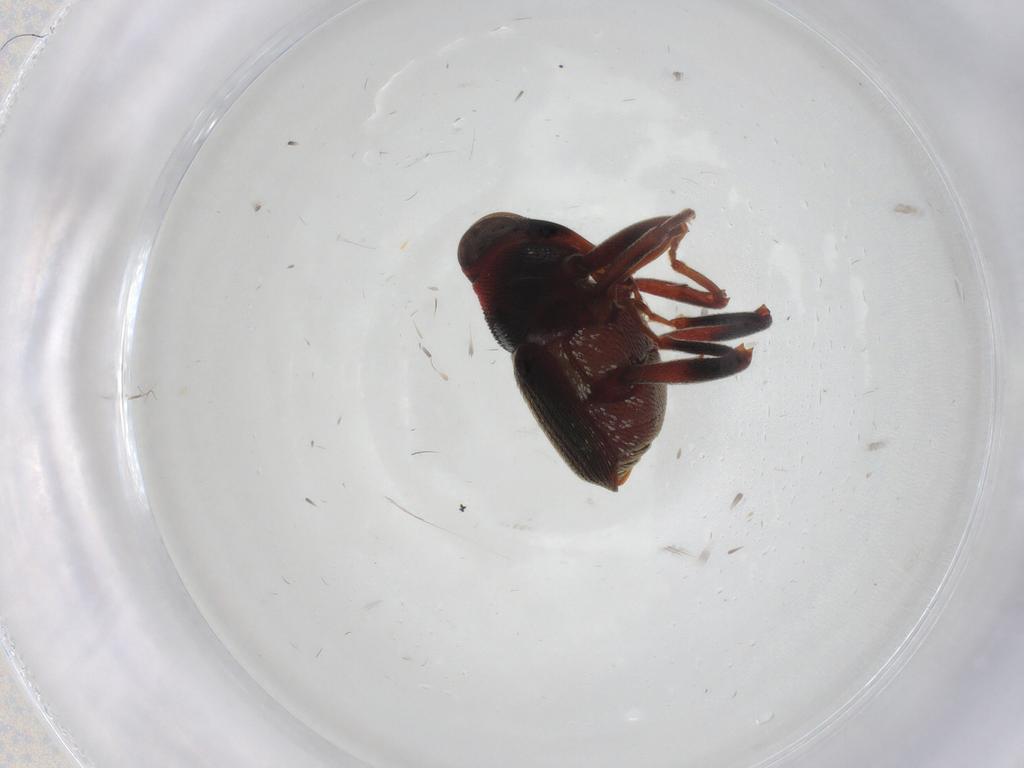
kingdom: Animalia
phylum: Arthropoda
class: Insecta
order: Coleoptera
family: Curculionidae
